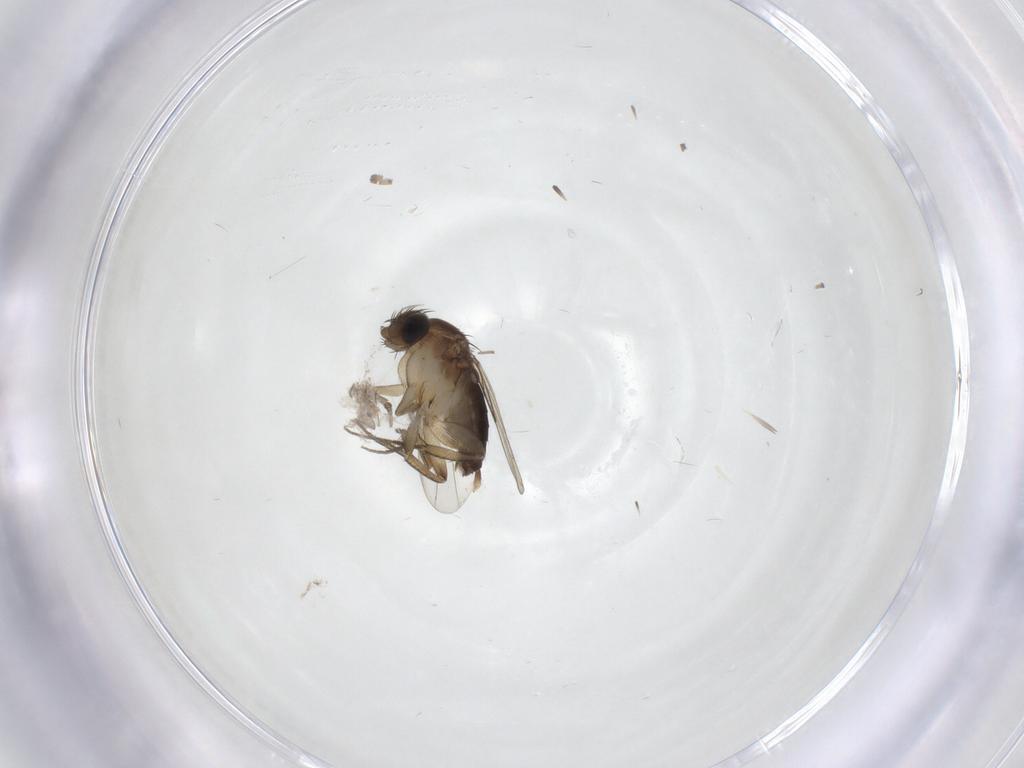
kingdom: Animalia
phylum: Arthropoda
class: Insecta
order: Diptera
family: Phoridae
